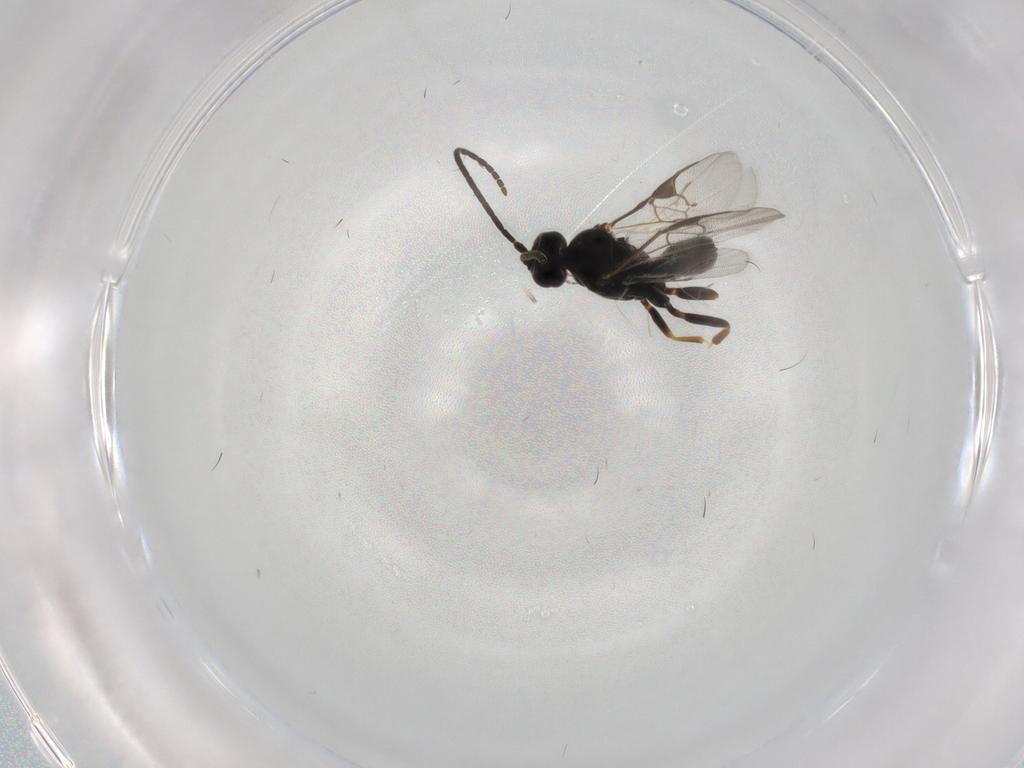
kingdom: Animalia
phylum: Arthropoda
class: Insecta
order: Hymenoptera
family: Braconidae
